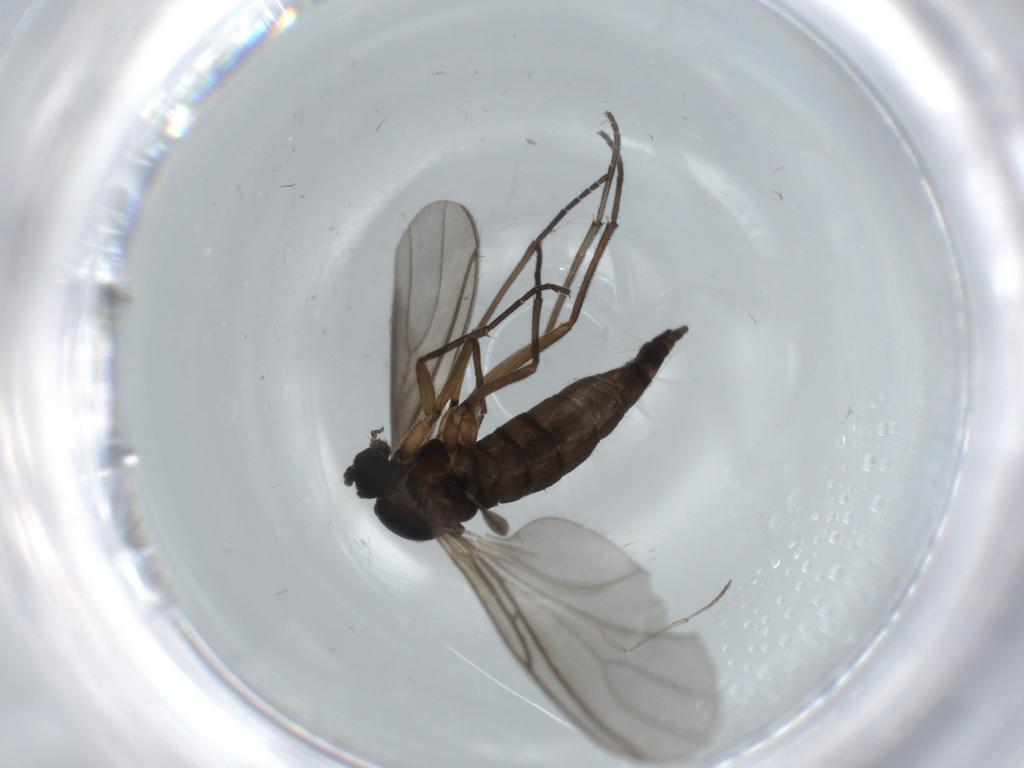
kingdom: Animalia
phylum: Arthropoda
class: Insecta
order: Diptera
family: Sciaridae
